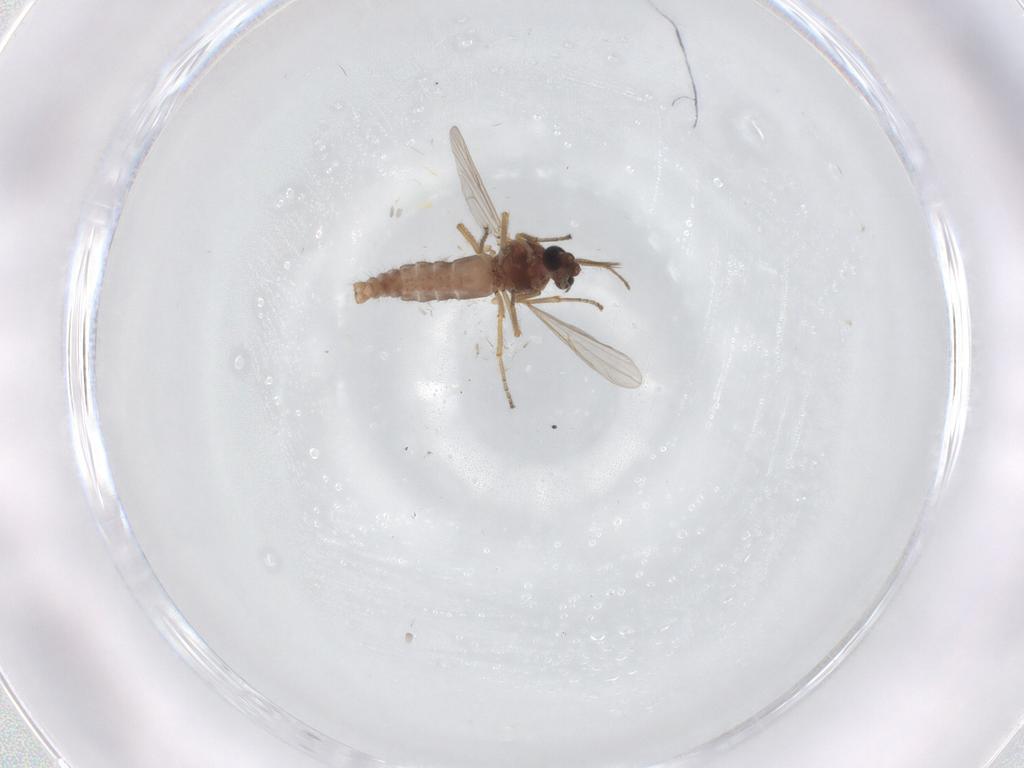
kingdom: Animalia
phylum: Arthropoda
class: Insecta
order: Diptera
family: Ceratopogonidae
